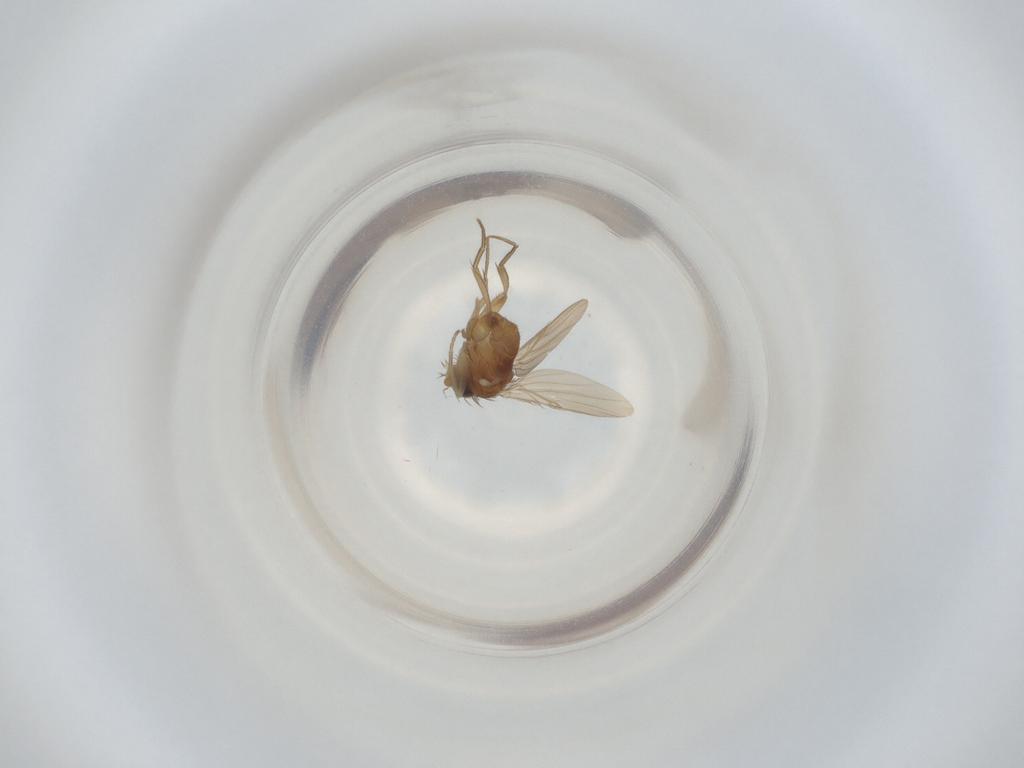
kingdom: Animalia
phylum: Arthropoda
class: Insecta
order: Diptera
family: Phoridae
